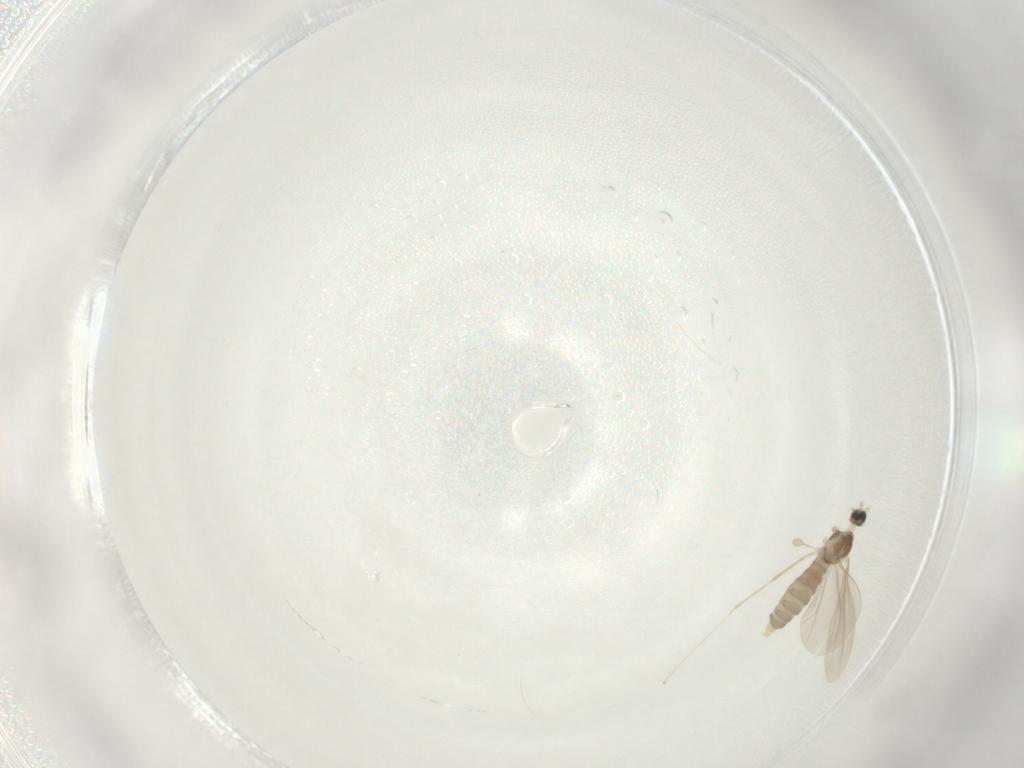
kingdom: Animalia
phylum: Arthropoda
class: Insecta
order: Diptera
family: Cecidomyiidae
